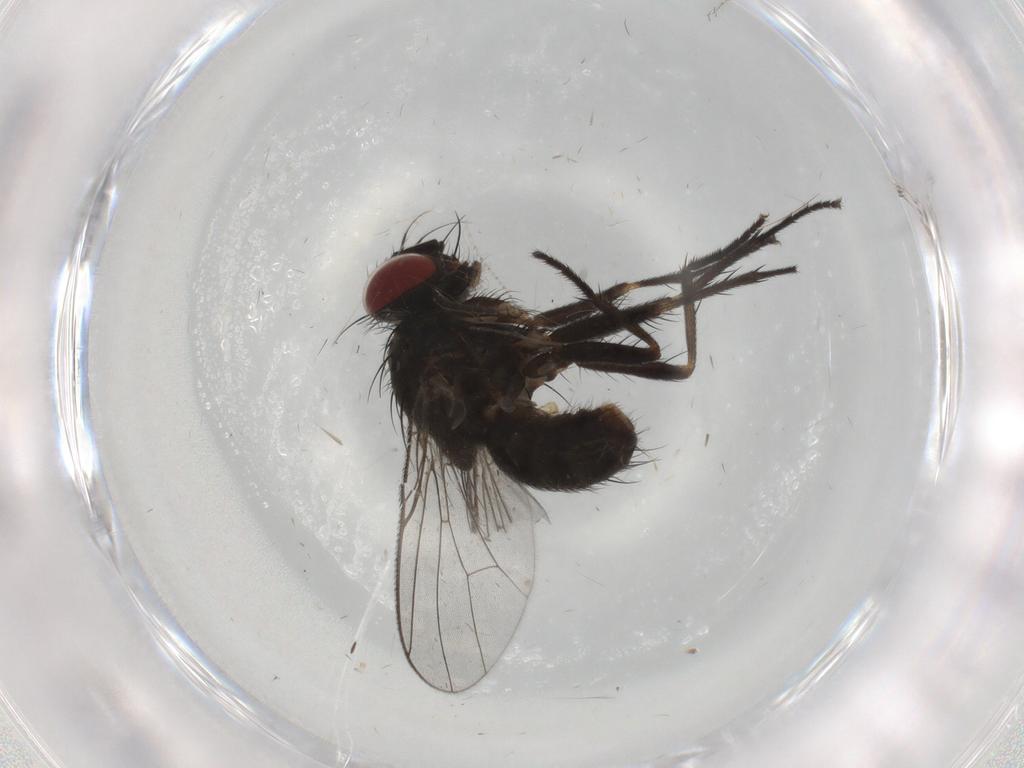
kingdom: Animalia
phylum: Arthropoda
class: Insecta
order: Diptera
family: Muscidae
